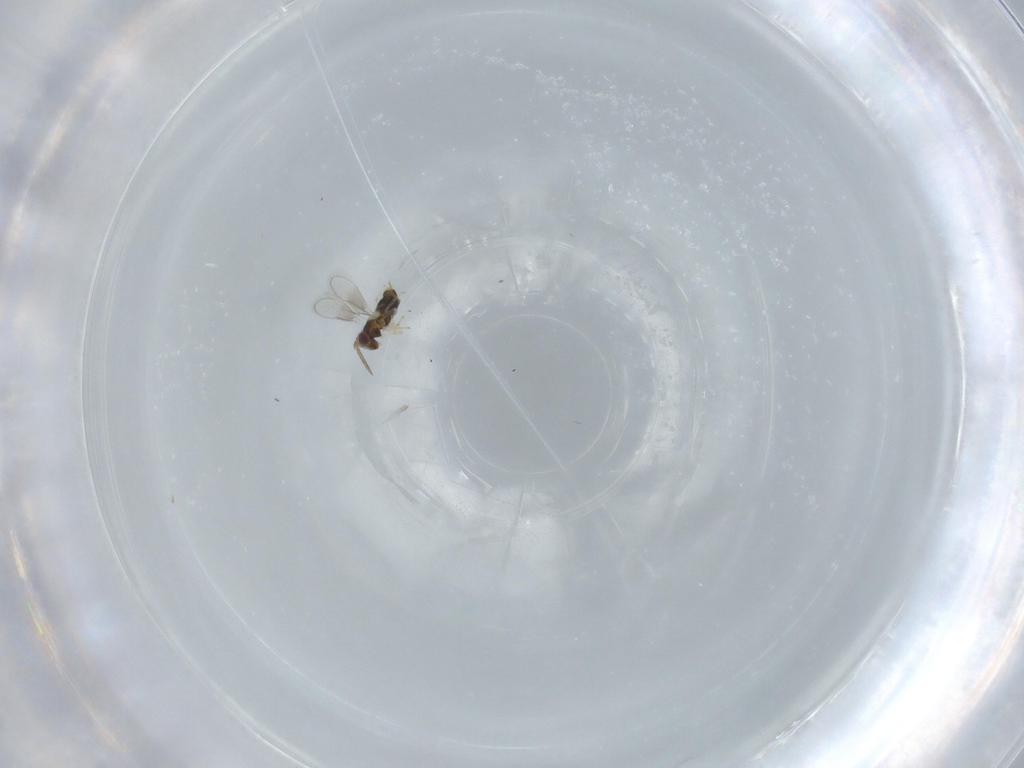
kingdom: Animalia
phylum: Arthropoda
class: Insecta
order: Hymenoptera
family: Aphelinidae
